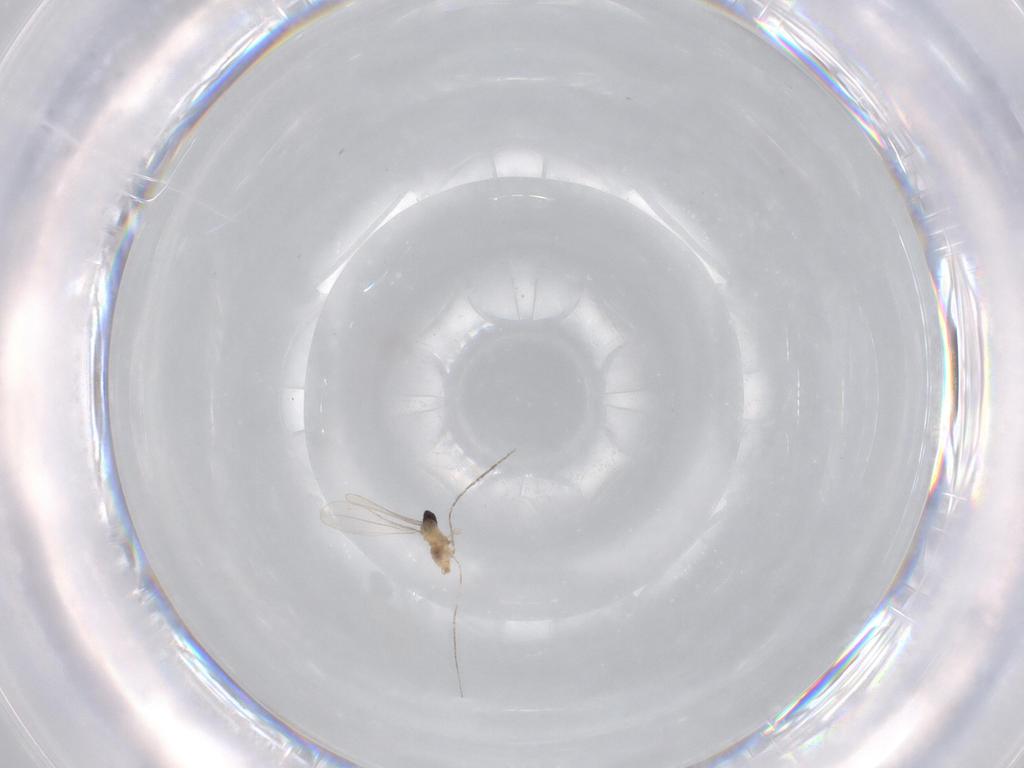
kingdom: Animalia
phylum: Arthropoda
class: Insecta
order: Diptera
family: Cecidomyiidae
